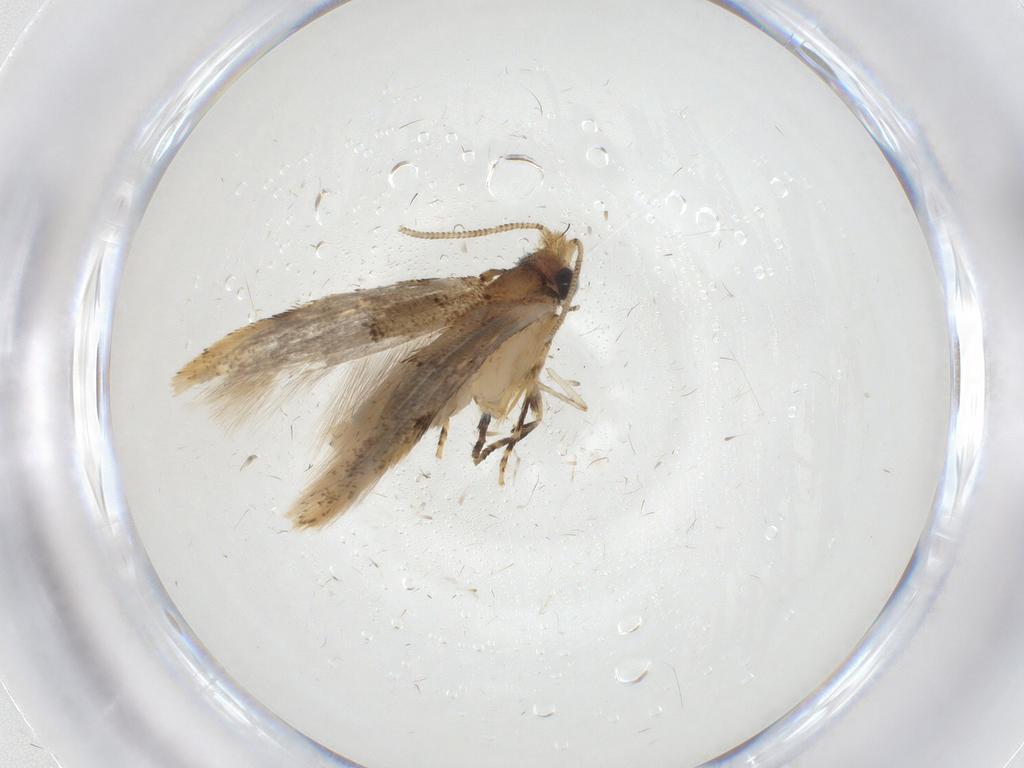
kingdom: Animalia
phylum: Arthropoda
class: Insecta
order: Lepidoptera
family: Meessiidae
